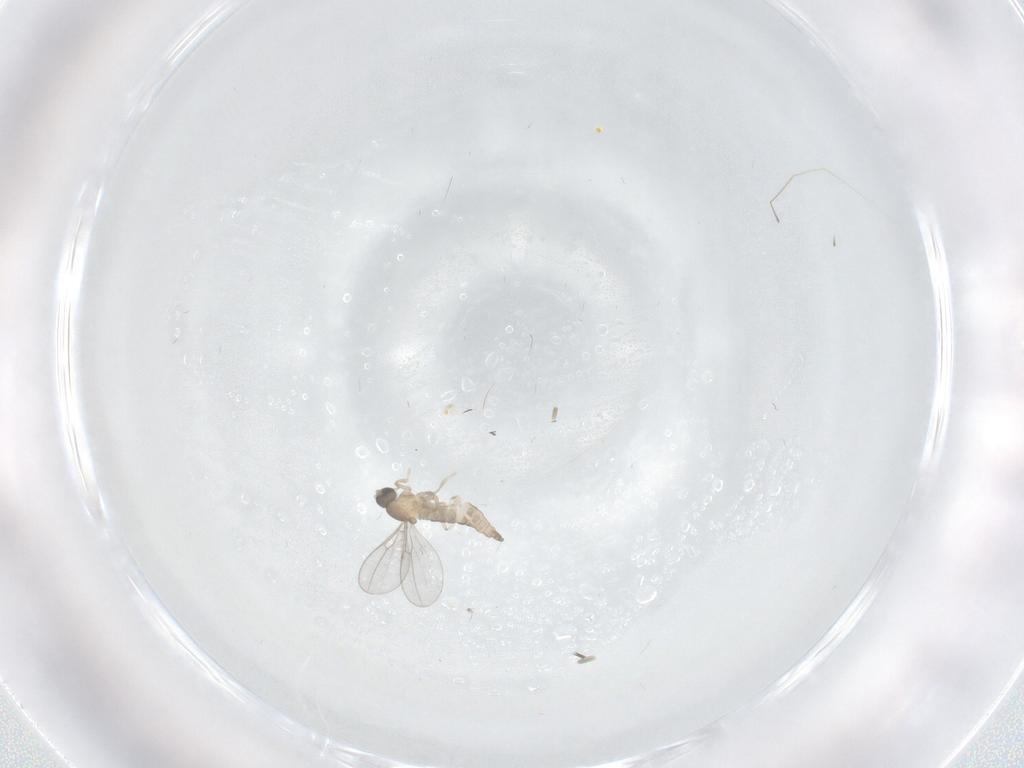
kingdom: Animalia
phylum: Arthropoda
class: Insecta
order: Diptera
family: Cecidomyiidae
